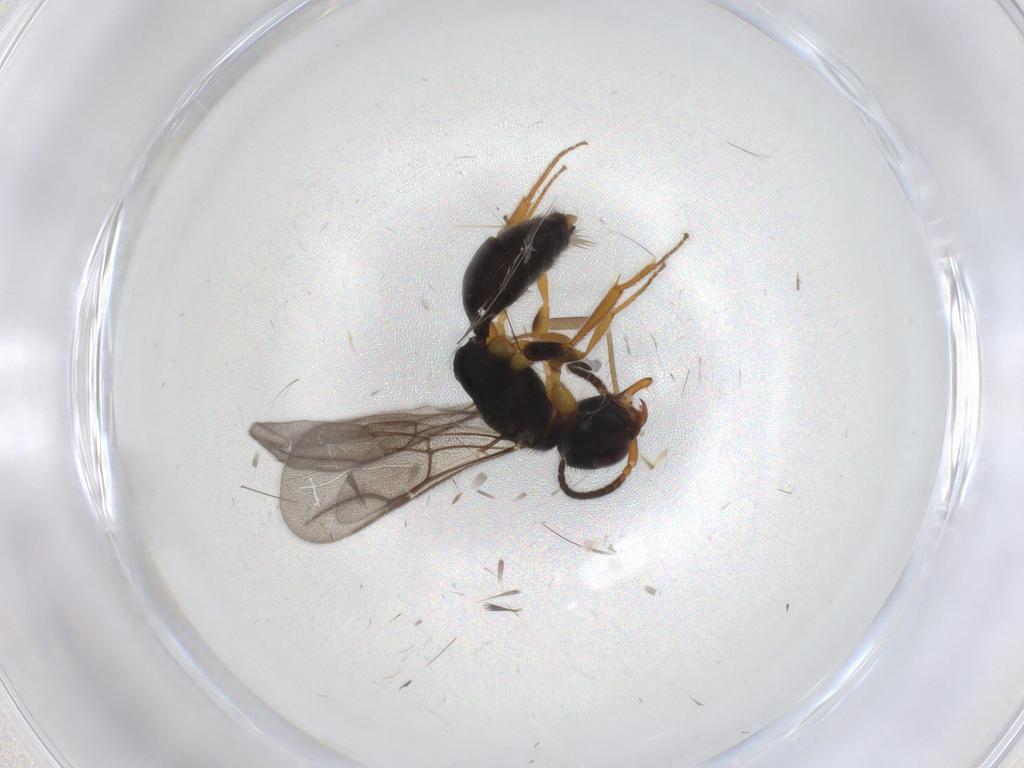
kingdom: Animalia
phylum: Arthropoda
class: Insecta
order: Hymenoptera
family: Bethylidae
